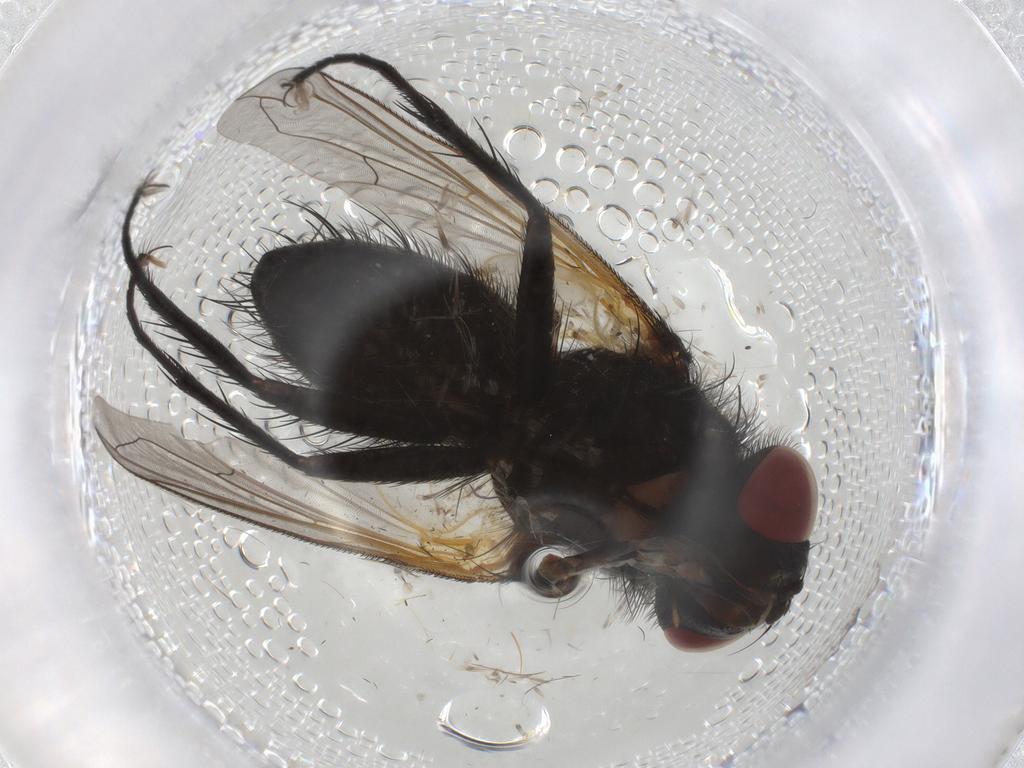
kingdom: Animalia
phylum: Arthropoda
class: Insecta
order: Diptera
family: Tachinidae
